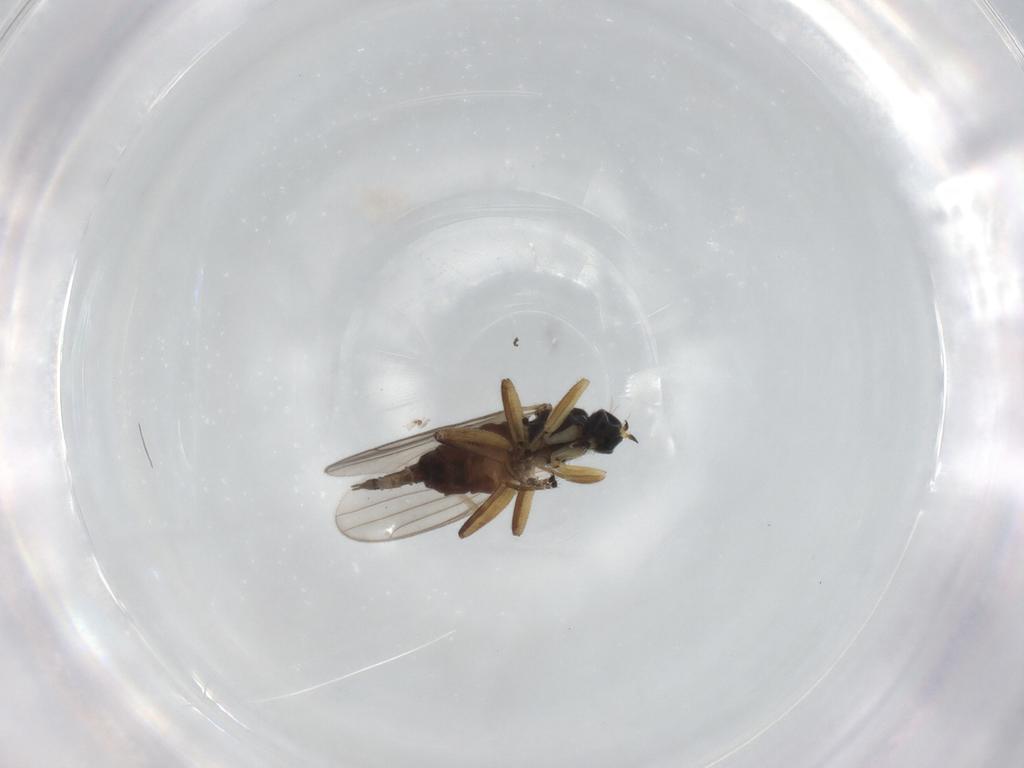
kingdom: Animalia
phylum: Arthropoda
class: Insecta
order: Diptera
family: Hybotidae
